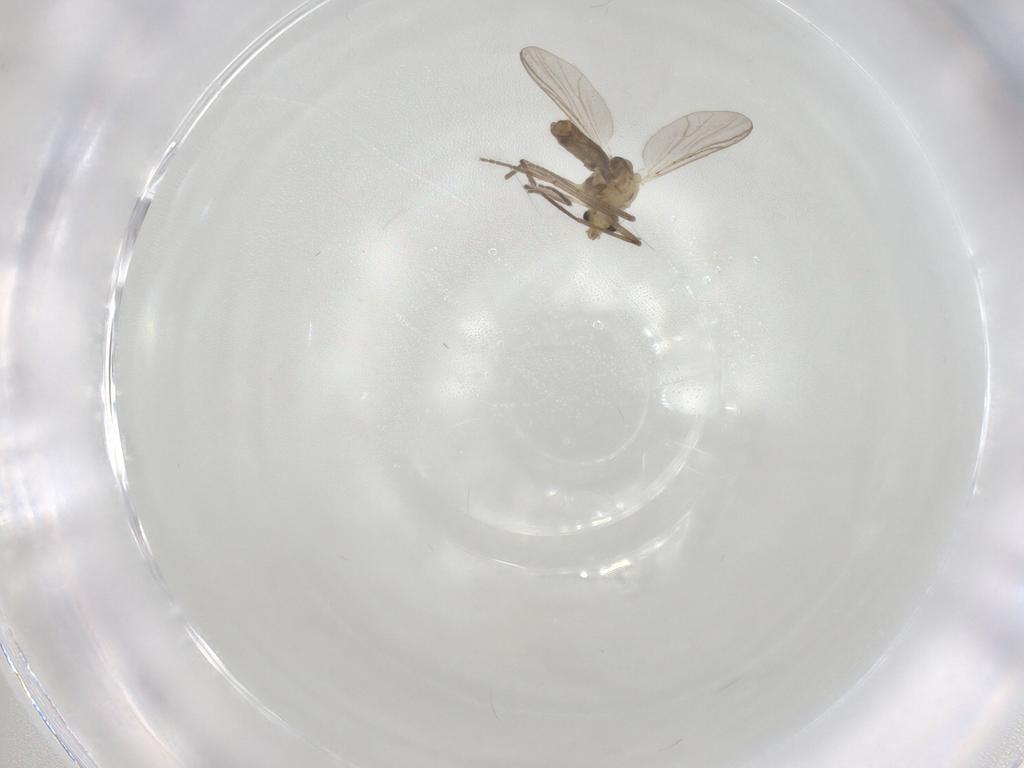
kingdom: Animalia
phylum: Arthropoda
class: Insecta
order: Diptera
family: Chironomidae
